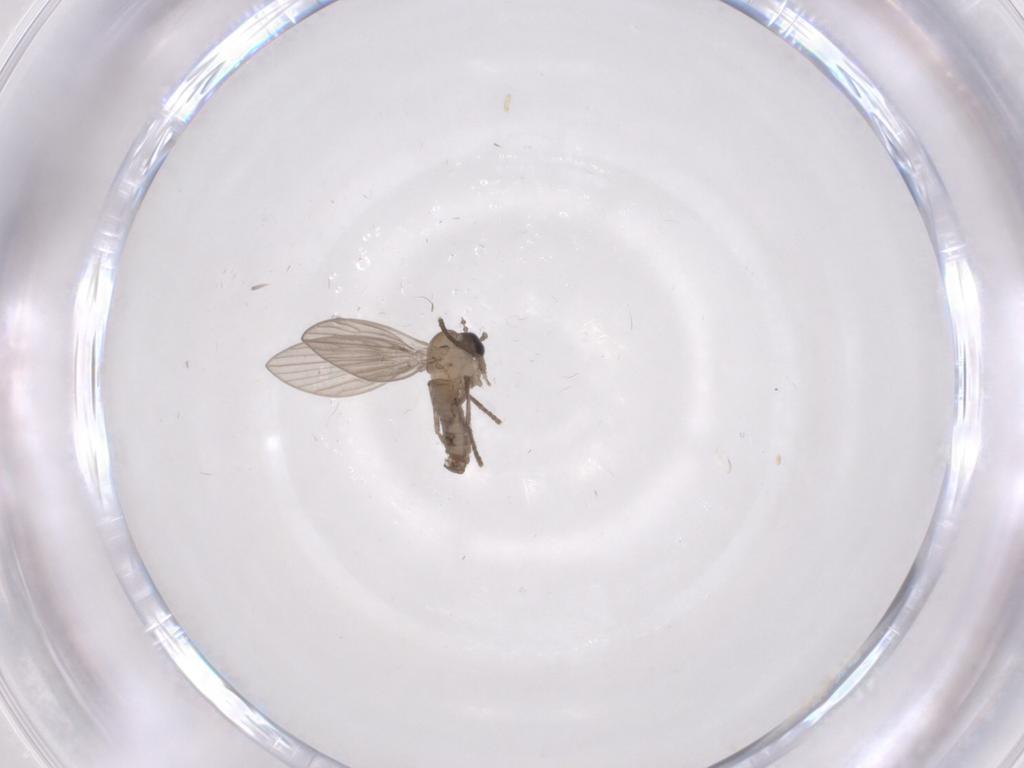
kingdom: Animalia
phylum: Arthropoda
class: Insecta
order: Diptera
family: Psychodidae
